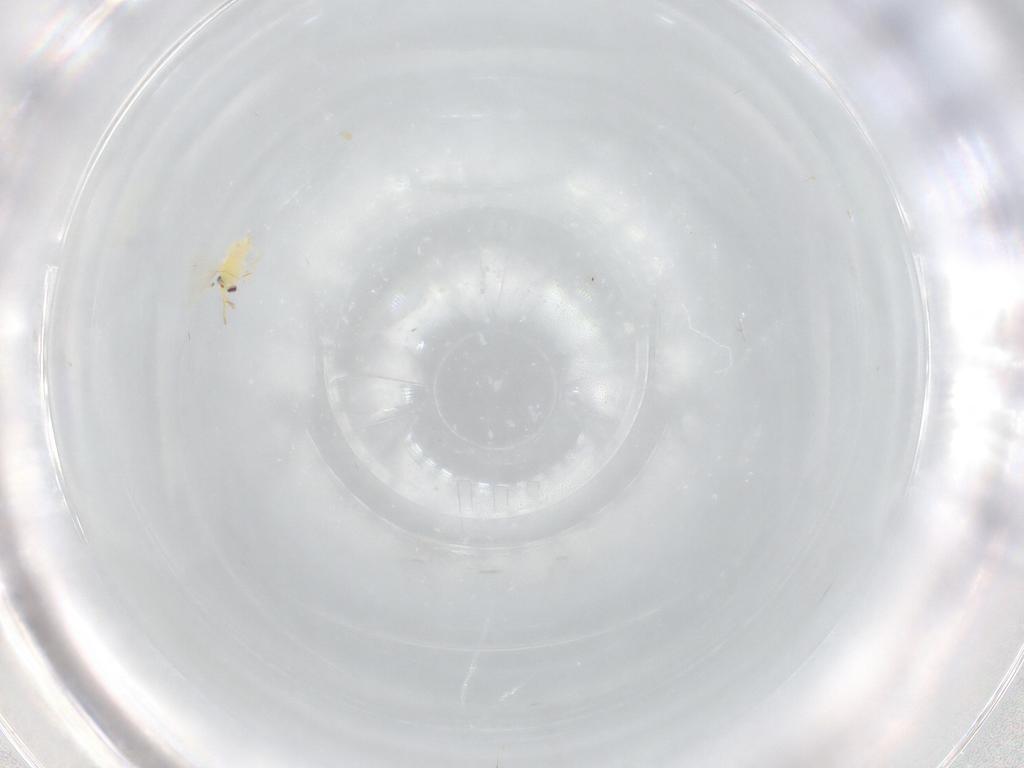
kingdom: Animalia
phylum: Arthropoda
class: Insecta
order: Hymenoptera
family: Aphelinidae
